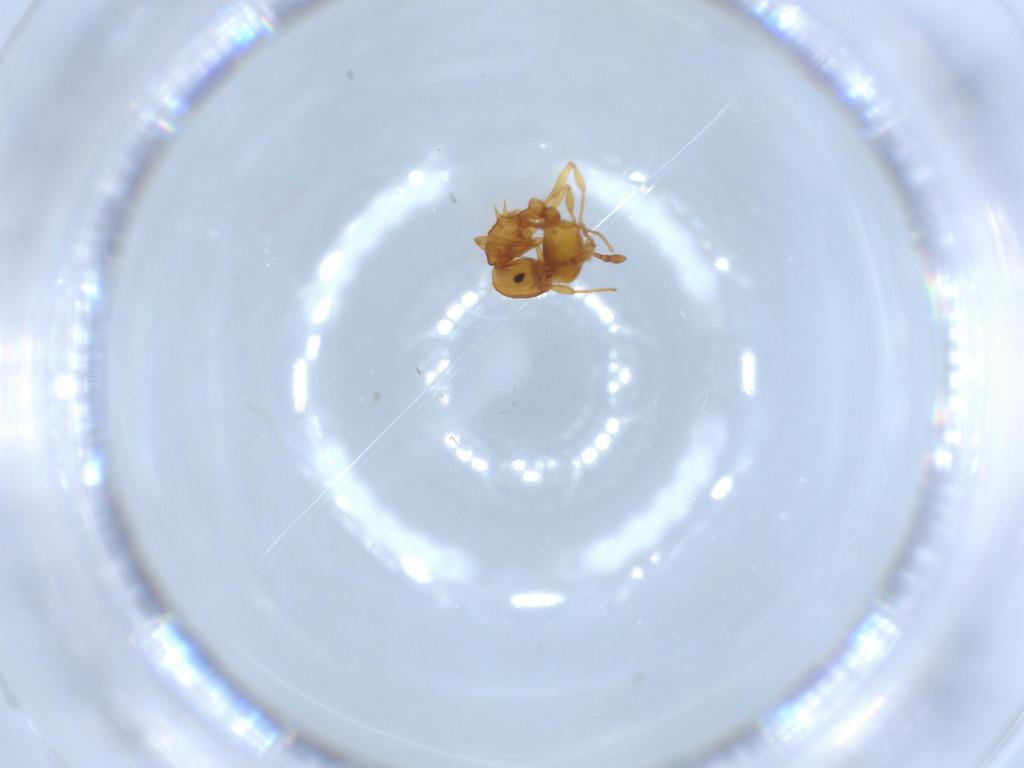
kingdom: Animalia
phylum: Arthropoda
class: Insecta
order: Hymenoptera
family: Formicidae
